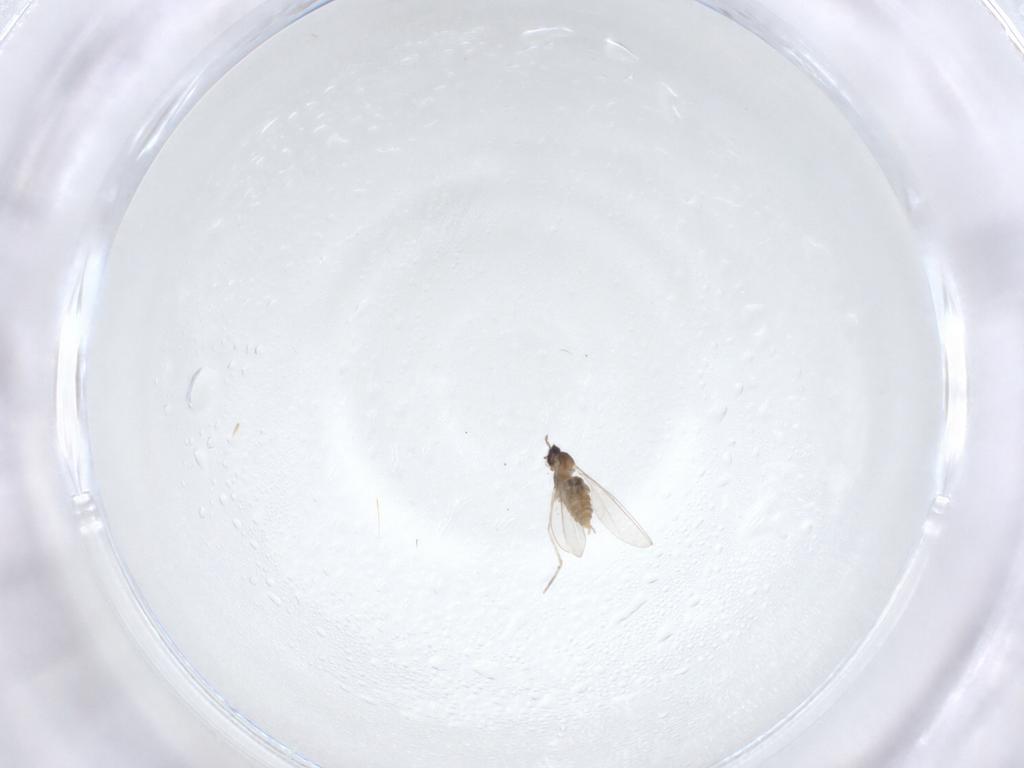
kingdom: Animalia
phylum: Arthropoda
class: Insecta
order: Diptera
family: Cecidomyiidae
